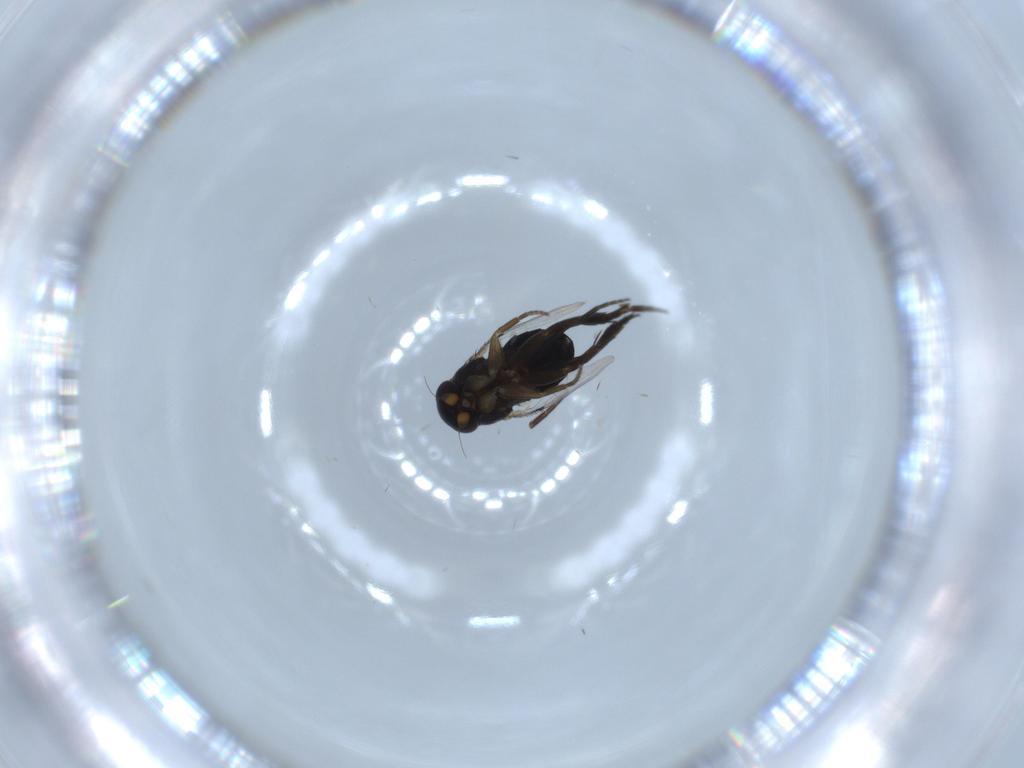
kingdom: Animalia
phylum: Arthropoda
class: Insecta
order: Diptera
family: Phoridae
